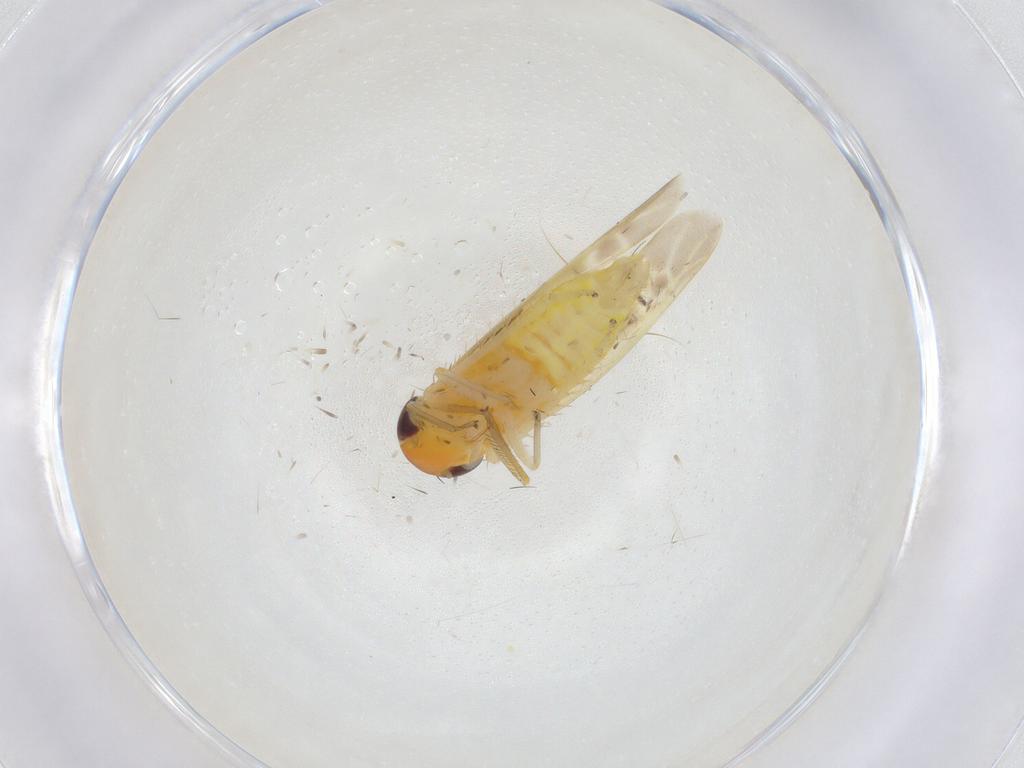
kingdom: Animalia
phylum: Arthropoda
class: Insecta
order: Hemiptera
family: Cicadellidae
